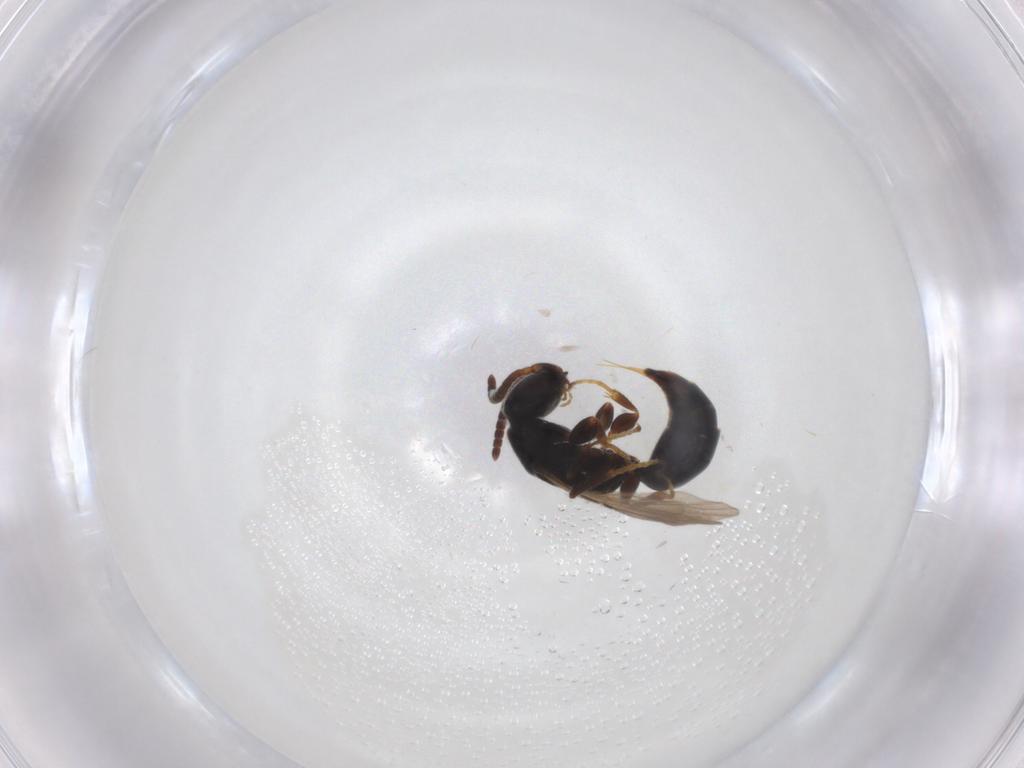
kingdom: Animalia
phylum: Arthropoda
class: Insecta
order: Hymenoptera
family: Bethylidae
